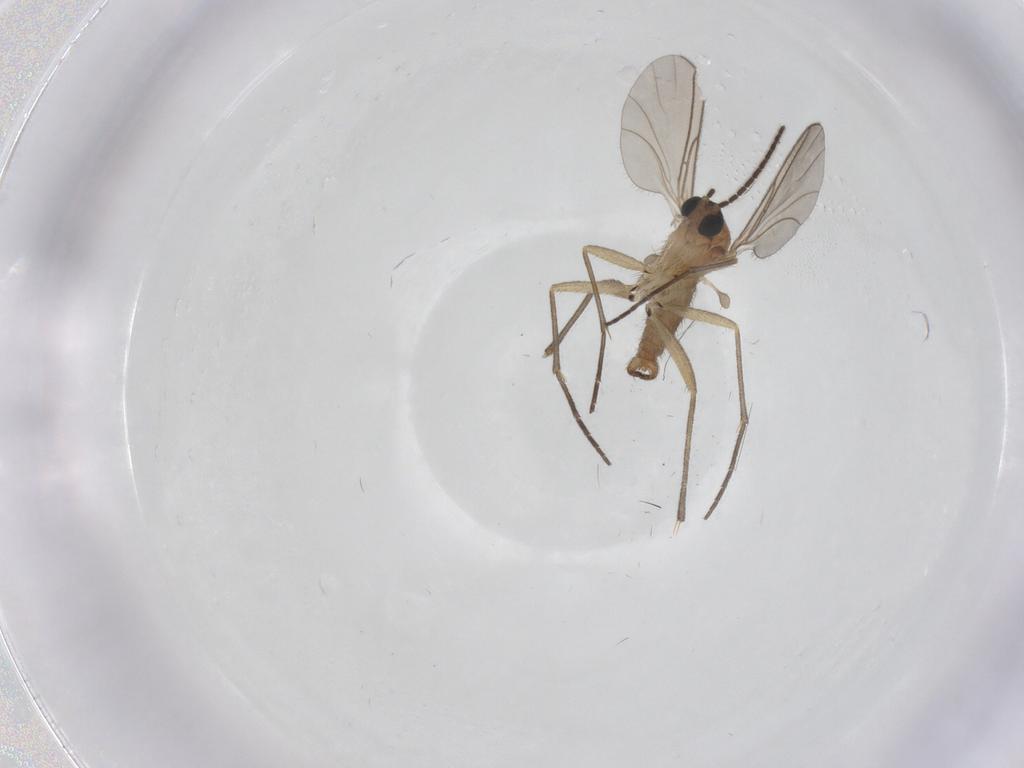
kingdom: Animalia
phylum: Arthropoda
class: Insecta
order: Diptera
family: Sciaridae
